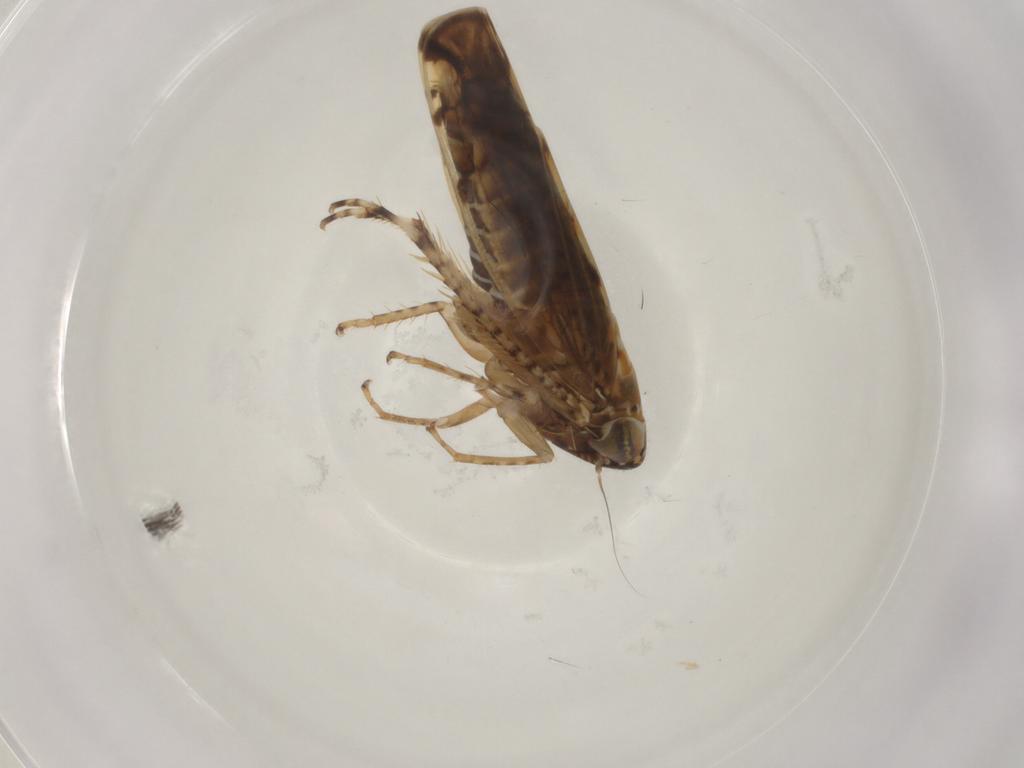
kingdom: Animalia
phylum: Arthropoda
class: Insecta
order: Hemiptera
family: Cicadellidae
